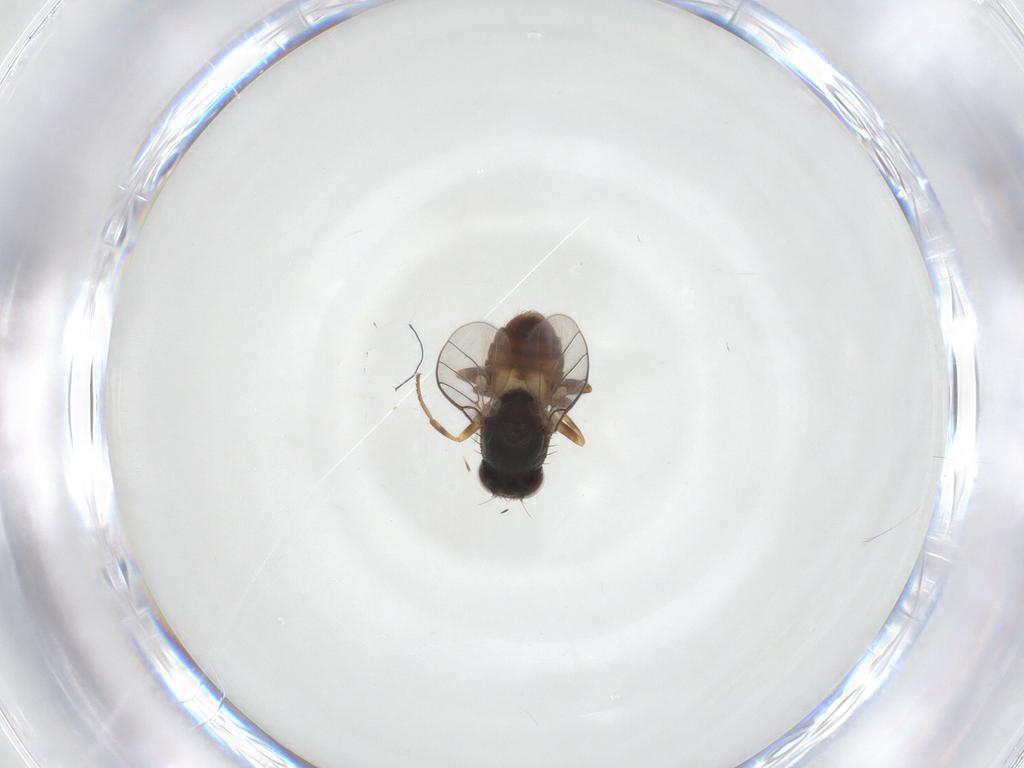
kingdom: Animalia
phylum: Arthropoda
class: Insecta
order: Diptera
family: Chloropidae
